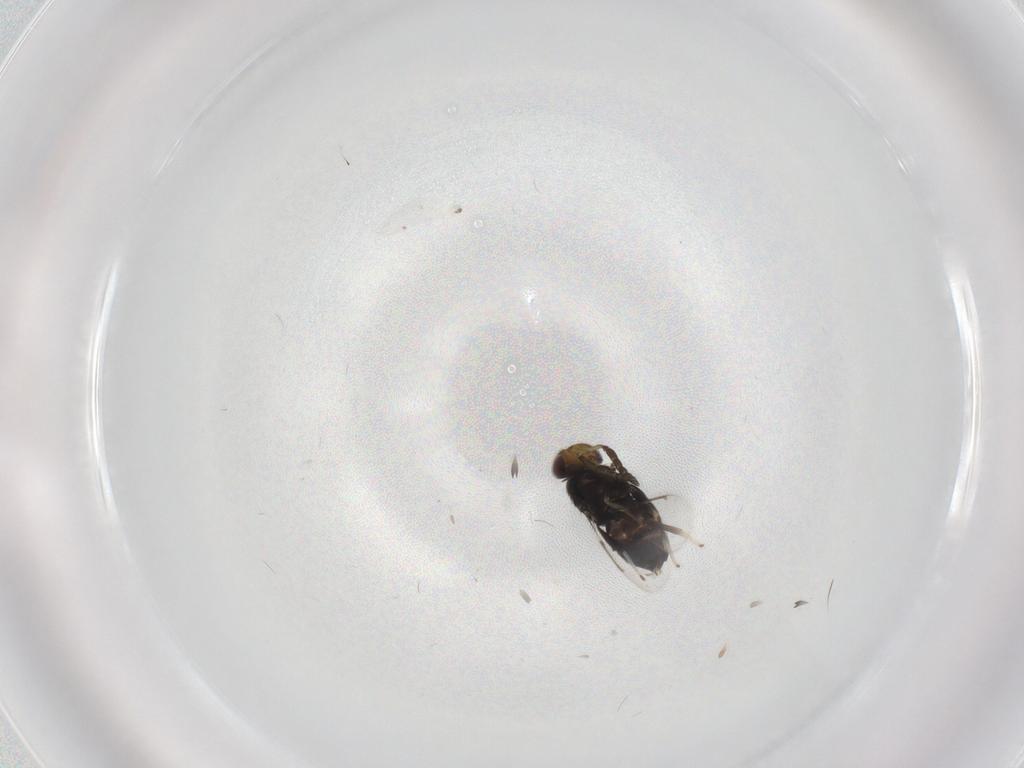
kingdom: Animalia
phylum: Arthropoda
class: Insecta
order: Hymenoptera
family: Aphelinidae
